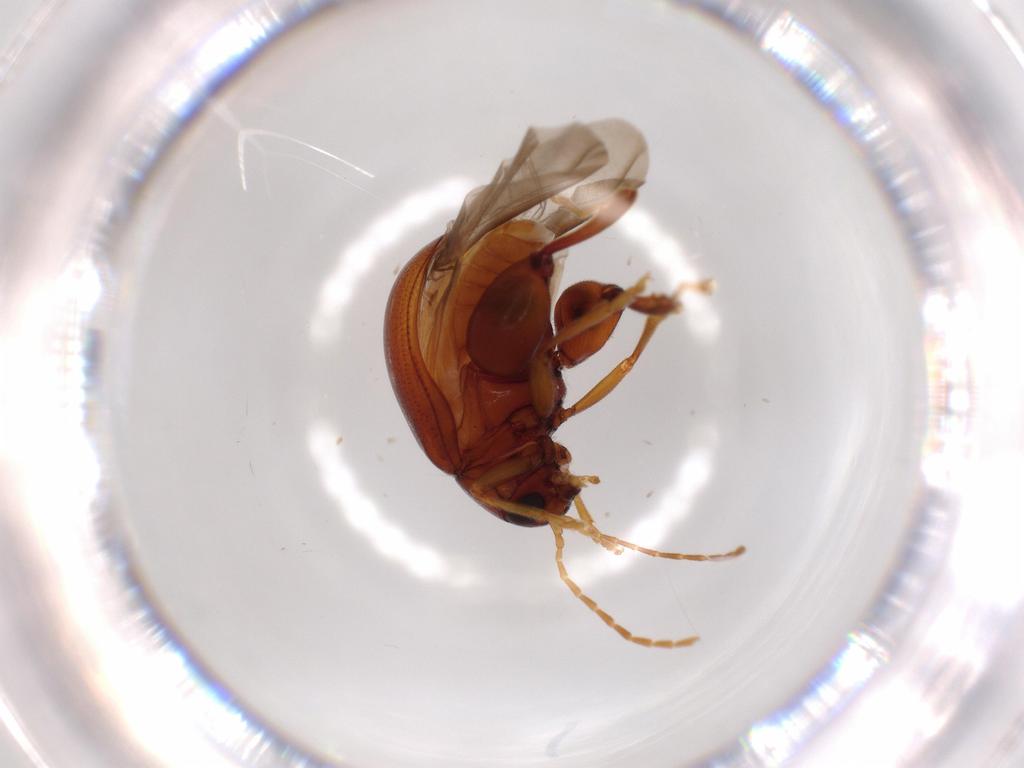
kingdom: Animalia
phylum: Arthropoda
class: Insecta
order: Coleoptera
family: Chrysomelidae
